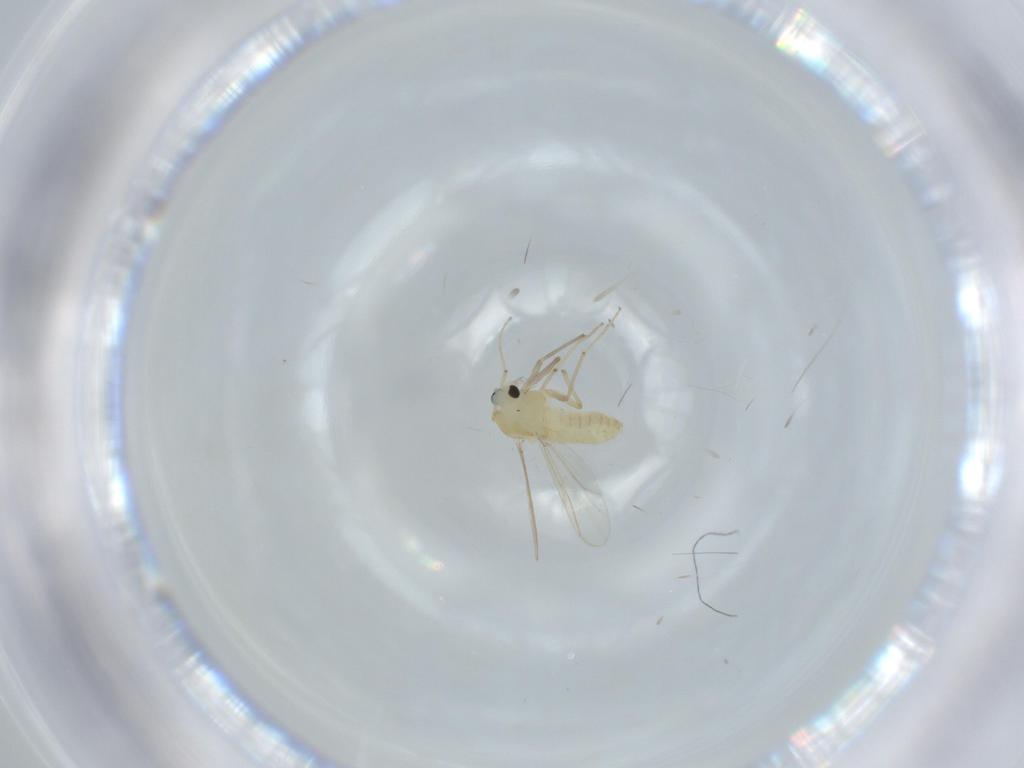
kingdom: Animalia
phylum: Arthropoda
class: Insecta
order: Diptera
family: Chironomidae
